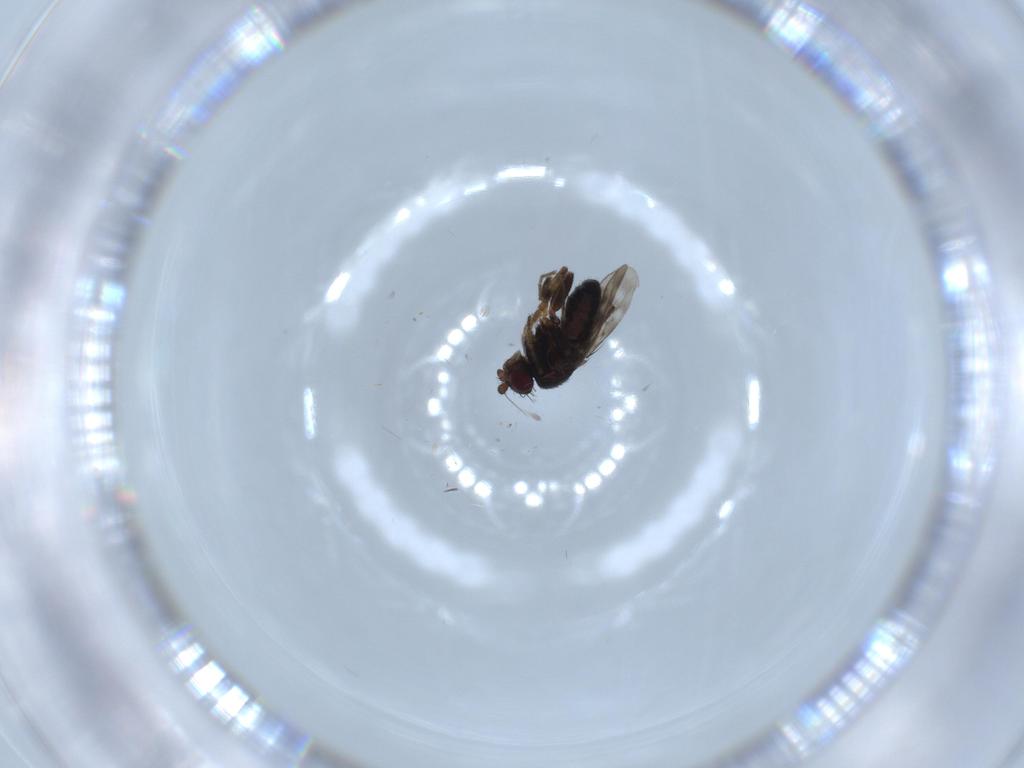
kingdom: Animalia
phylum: Arthropoda
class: Insecta
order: Diptera
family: Sphaeroceridae
